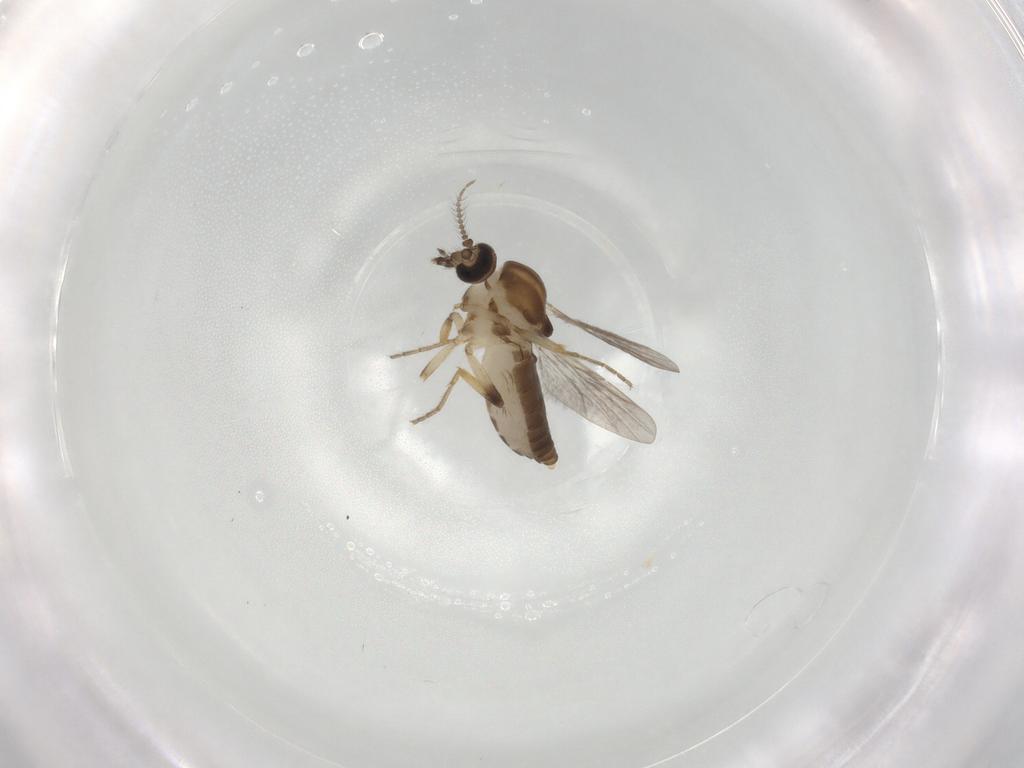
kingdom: Animalia
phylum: Arthropoda
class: Insecta
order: Diptera
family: Ceratopogonidae
